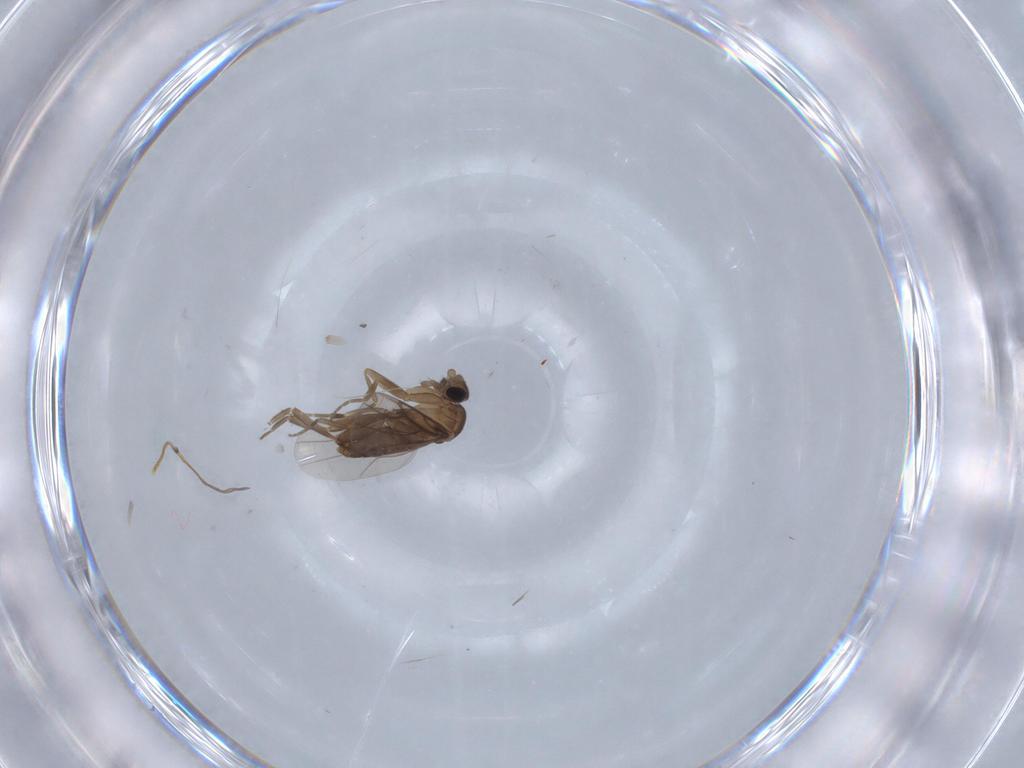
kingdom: Animalia
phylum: Arthropoda
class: Insecta
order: Diptera
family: Phoridae
